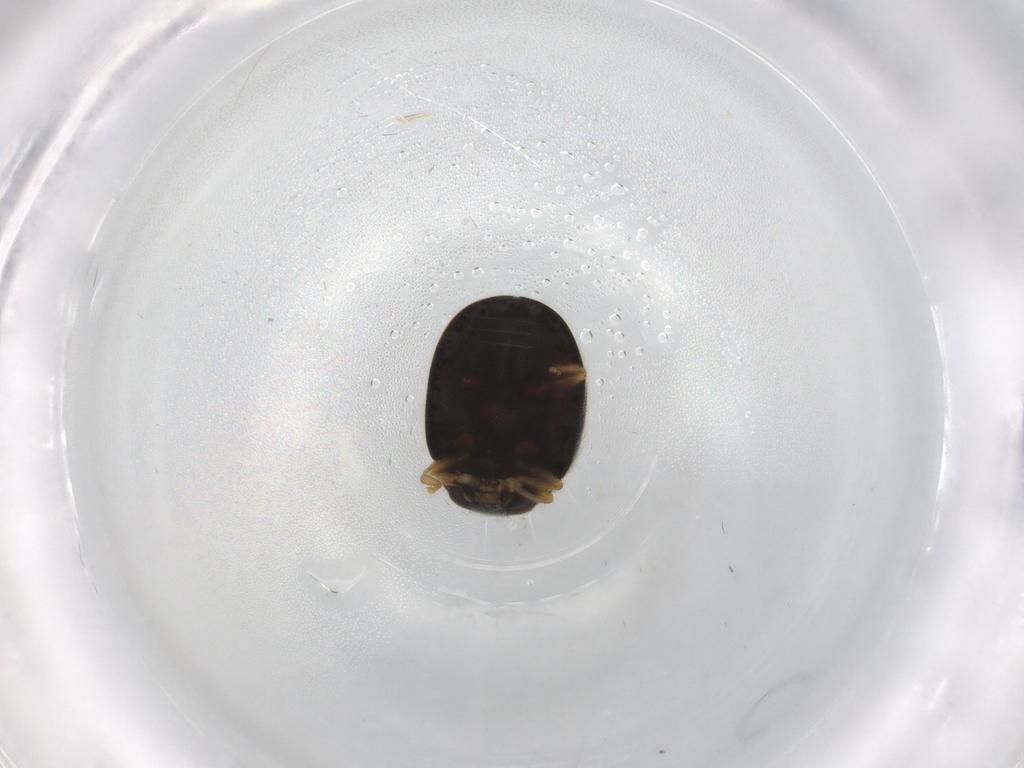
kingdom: Animalia
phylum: Arthropoda
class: Insecta
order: Coleoptera
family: Coccinellidae
